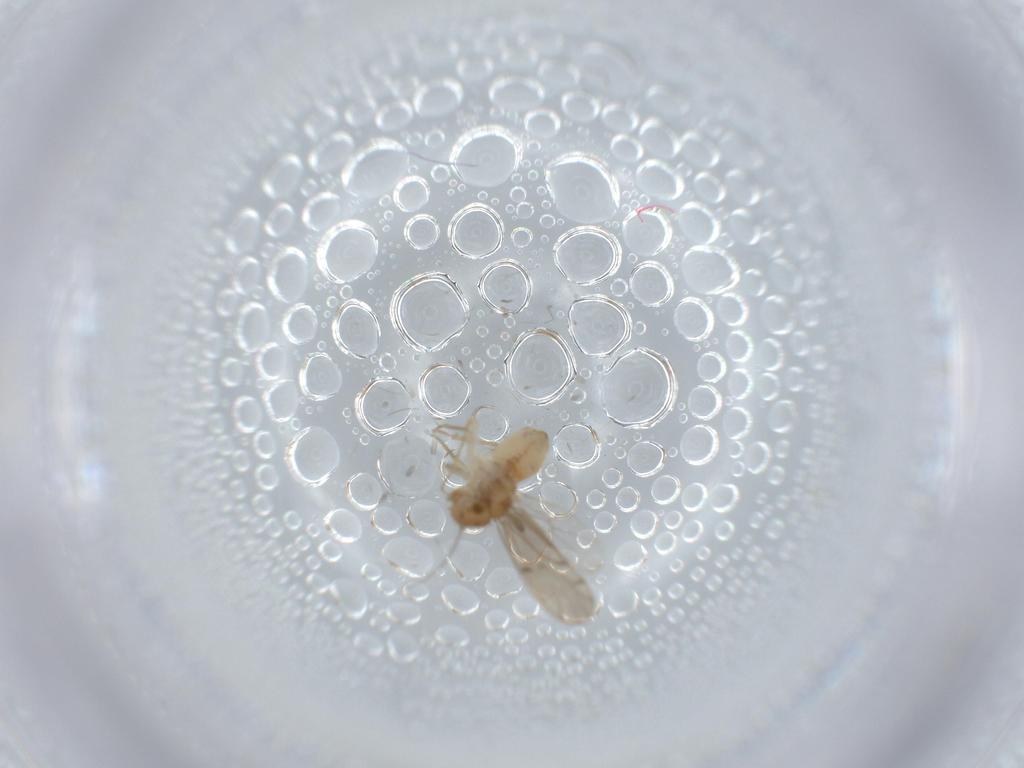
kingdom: Animalia
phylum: Arthropoda
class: Insecta
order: Psocodea
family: Ectopsocidae
